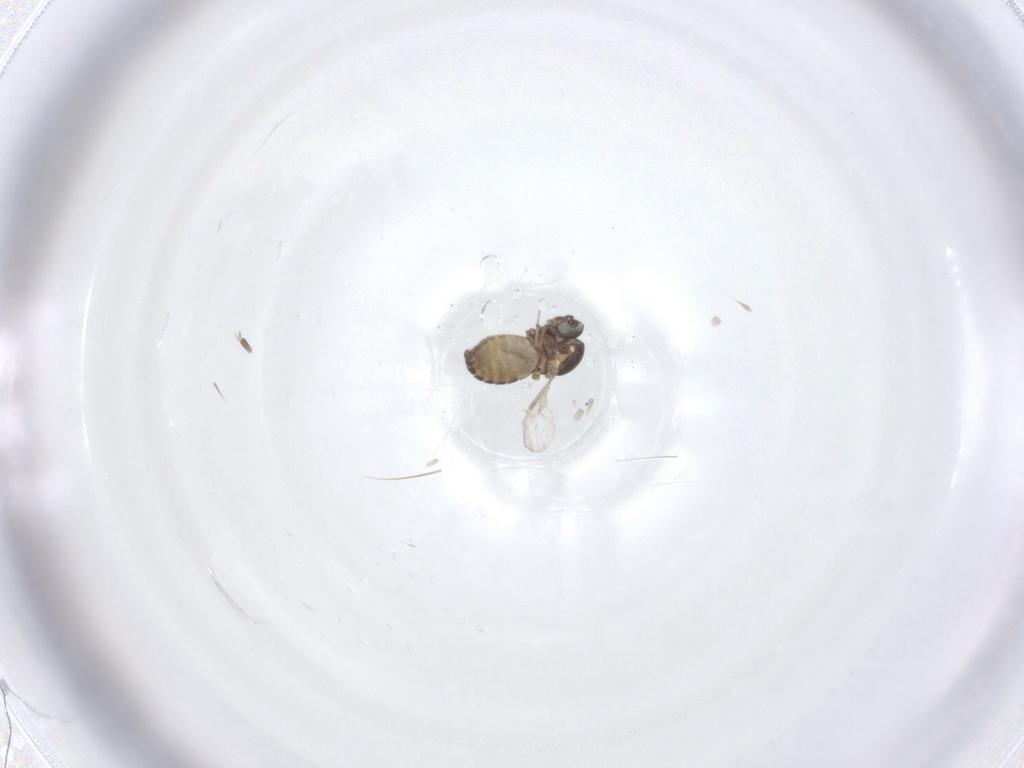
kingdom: Animalia
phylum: Arthropoda
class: Insecta
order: Diptera
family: Ceratopogonidae
